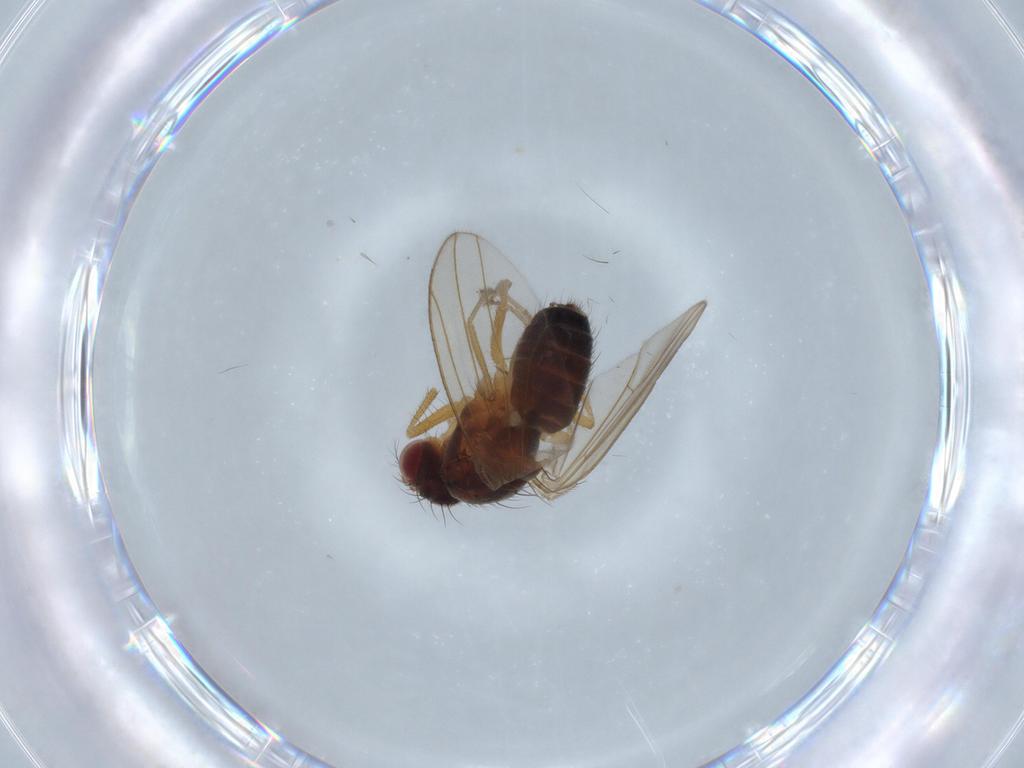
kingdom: Animalia
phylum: Arthropoda
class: Insecta
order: Diptera
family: Drosophilidae
